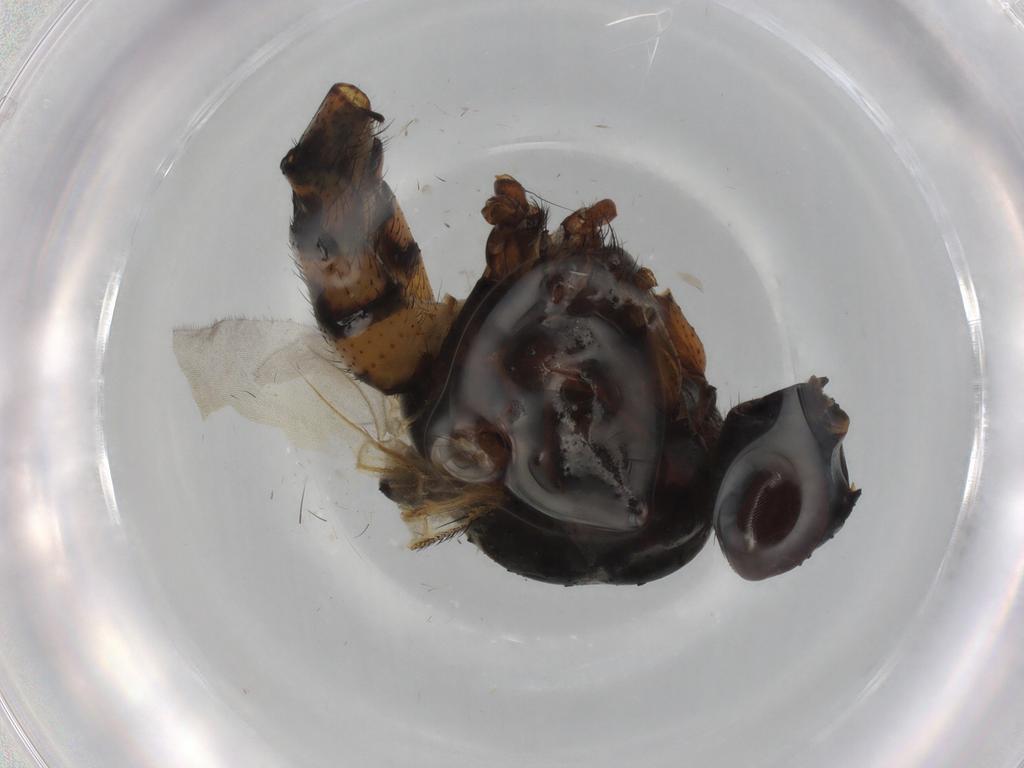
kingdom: Animalia
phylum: Arthropoda
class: Insecta
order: Diptera
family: Anthomyiidae
